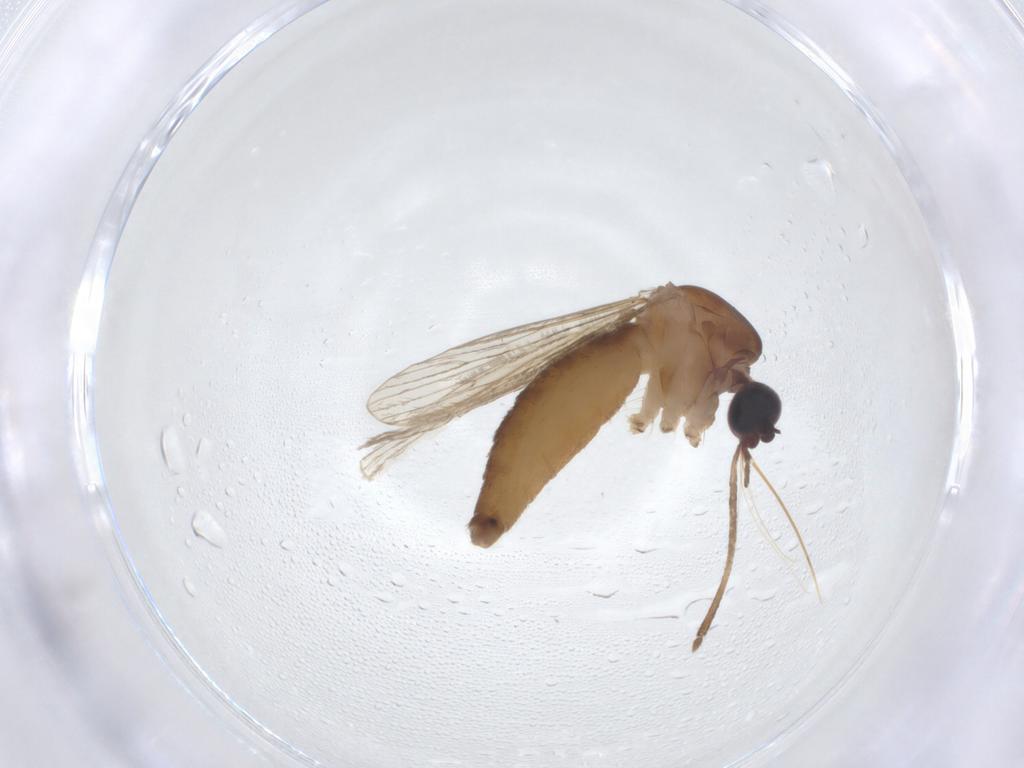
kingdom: Animalia
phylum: Arthropoda
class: Insecta
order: Diptera
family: Culicidae
